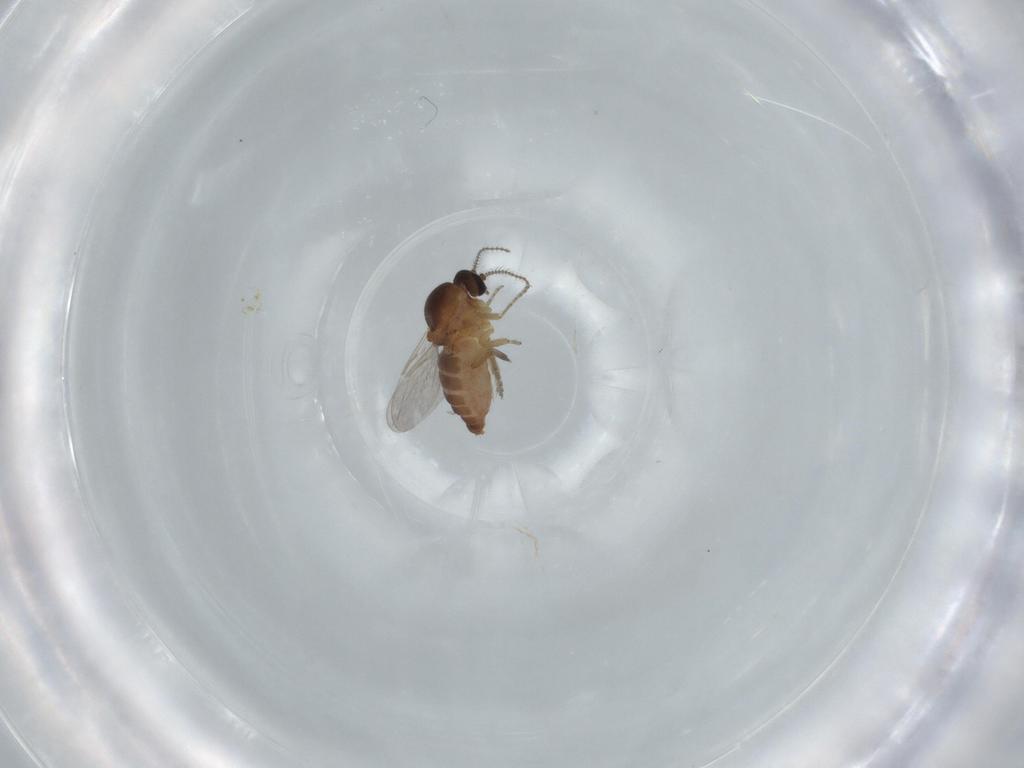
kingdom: Animalia
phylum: Arthropoda
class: Insecta
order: Diptera
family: Ceratopogonidae
